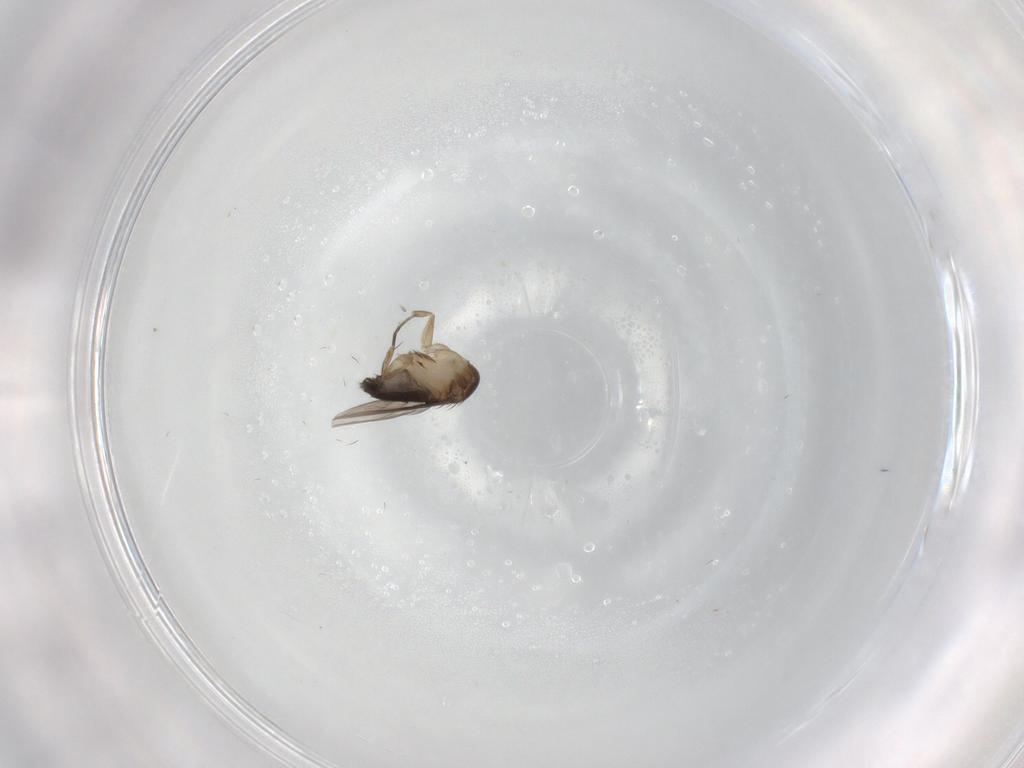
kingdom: Animalia
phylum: Arthropoda
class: Insecta
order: Diptera
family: Phoridae
